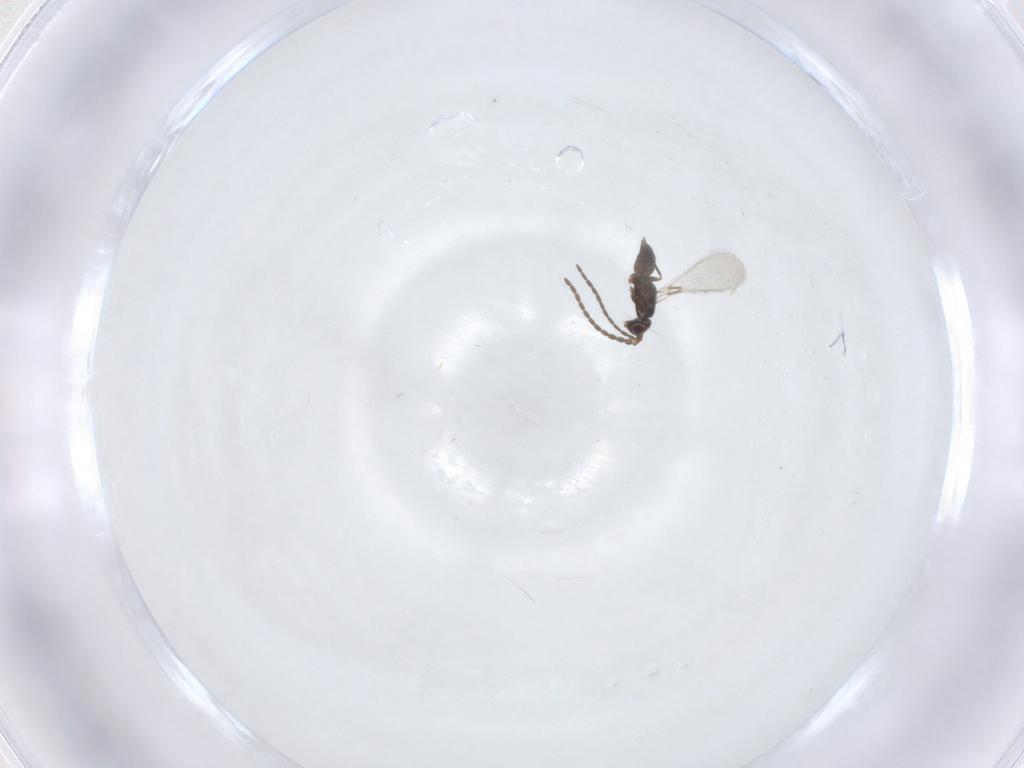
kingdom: Animalia
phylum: Arthropoda
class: Insecta
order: Hymenoptera
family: Mymaridae
